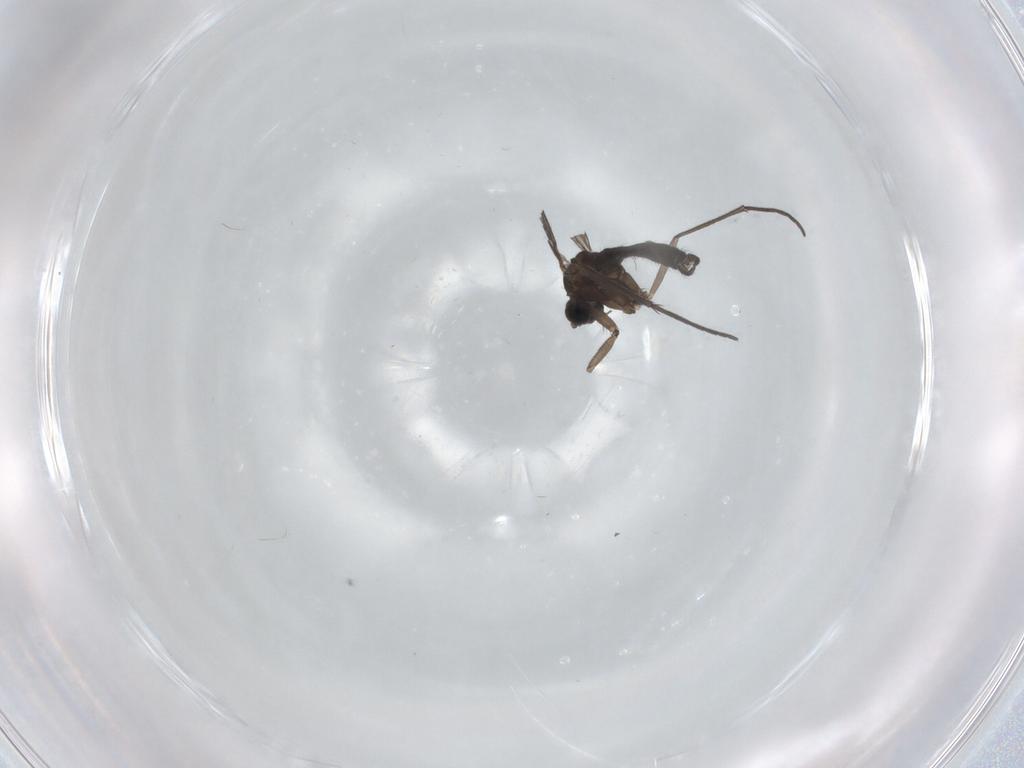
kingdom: Animalia
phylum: Arthropoda
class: Insecta
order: Diptera
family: Sciaridae
